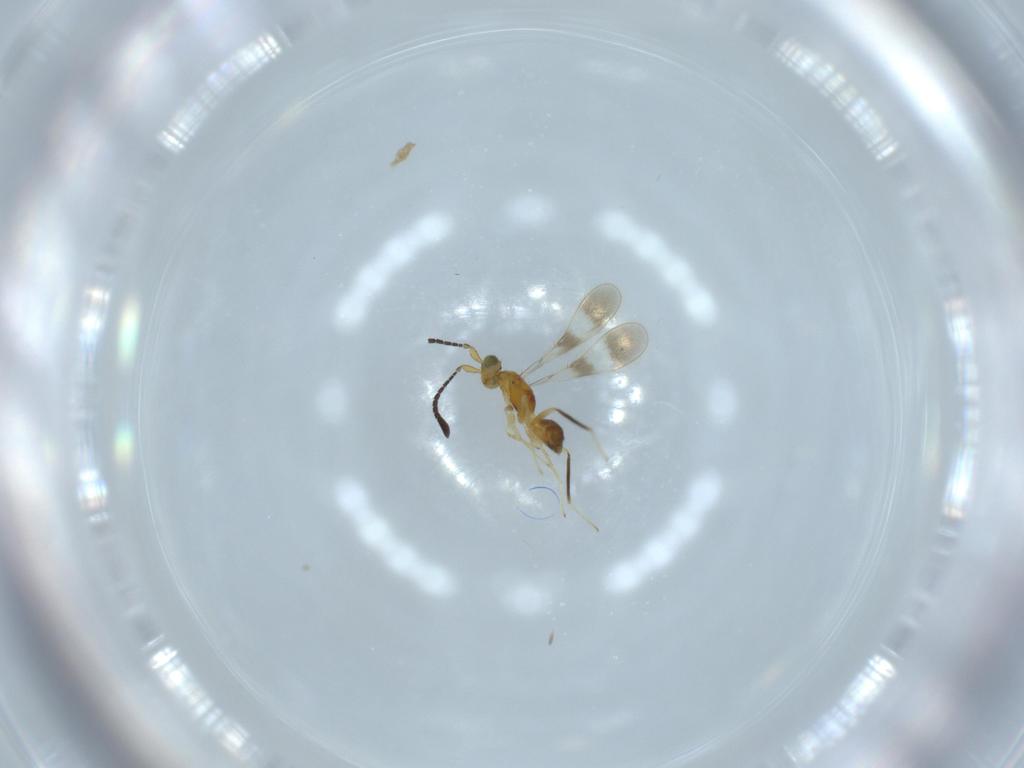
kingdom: Animalia
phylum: Arthropoda
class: Insecta
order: Hymenoptera
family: Mymaridae
